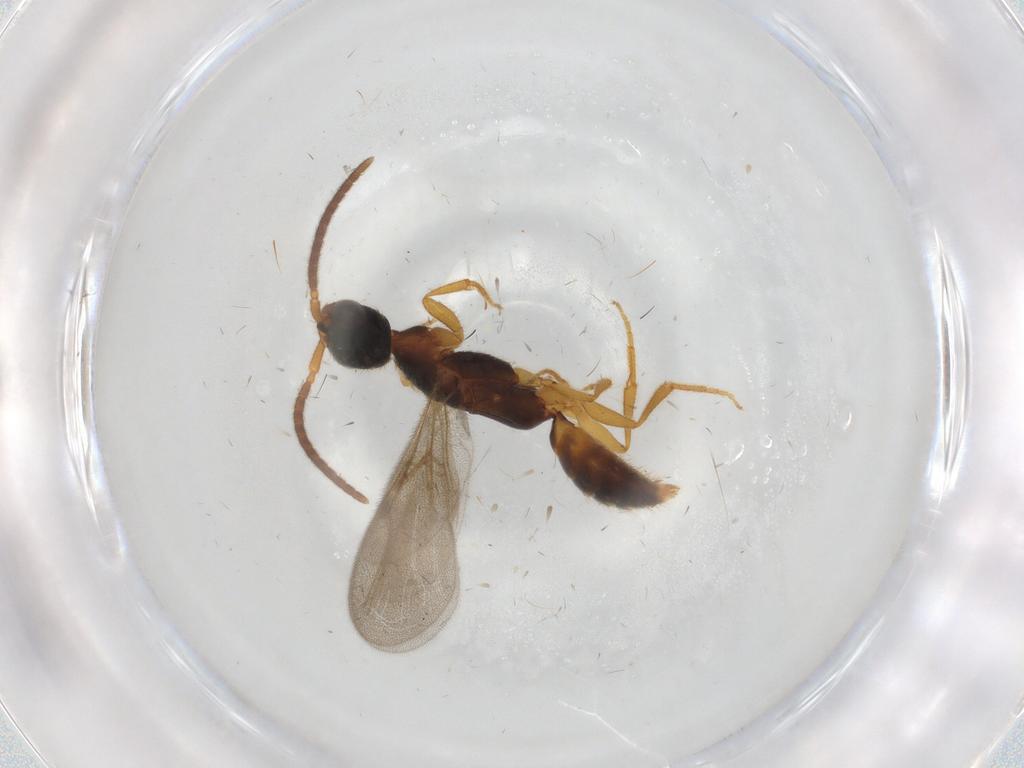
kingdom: Animalia
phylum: Arthropoda
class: Insecta
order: Hymenoptera
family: Bethylidae
